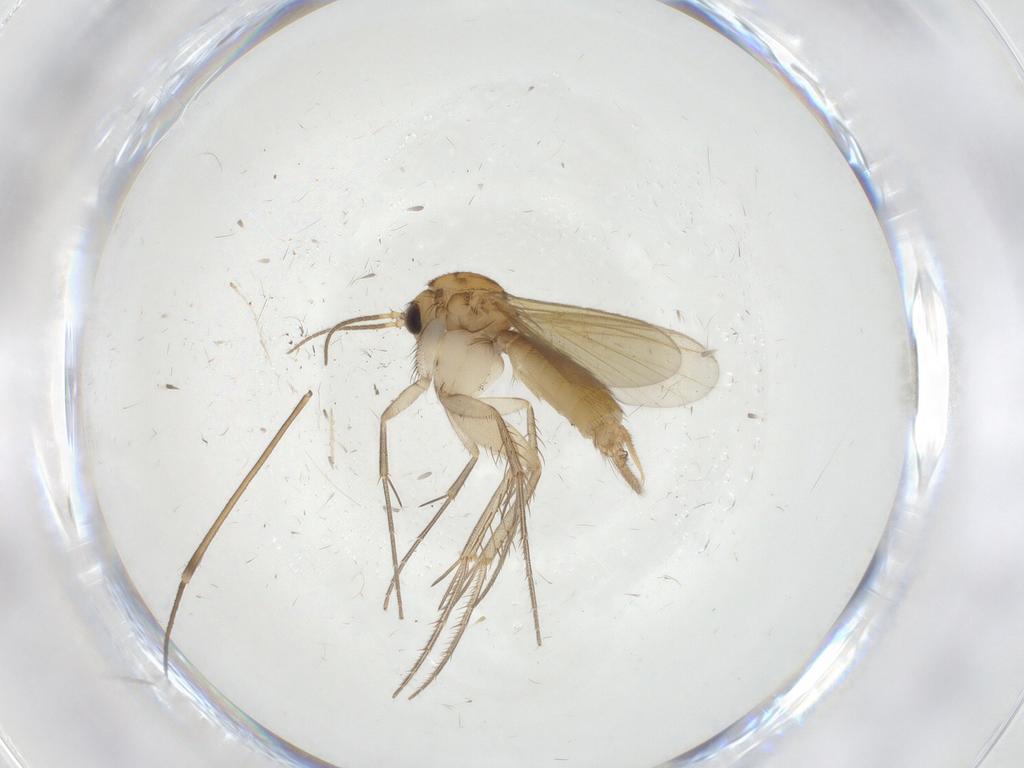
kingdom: Animalia
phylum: Arthropoda
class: Insecta
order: Diptera
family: Mycetophilidae
